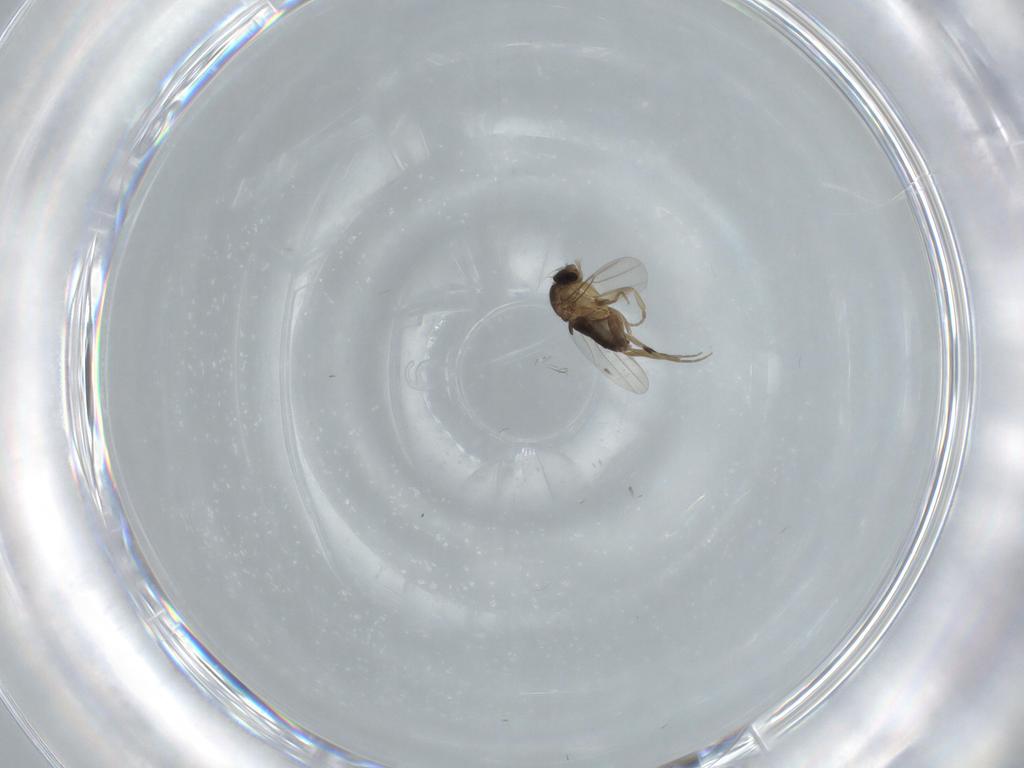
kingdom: Animalia
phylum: Arthropoda
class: Insecta
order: Diptera
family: Phoridae
